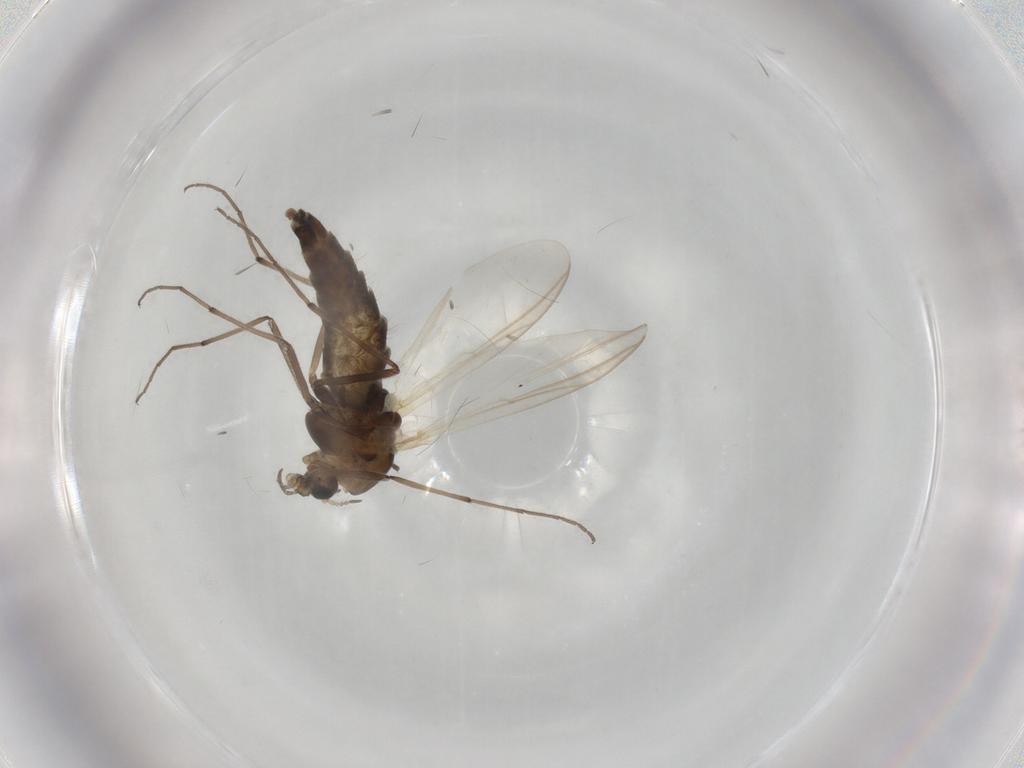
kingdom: Animalia
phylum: Arthropoda
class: Insecta
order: Diptera
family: Chironomidae
